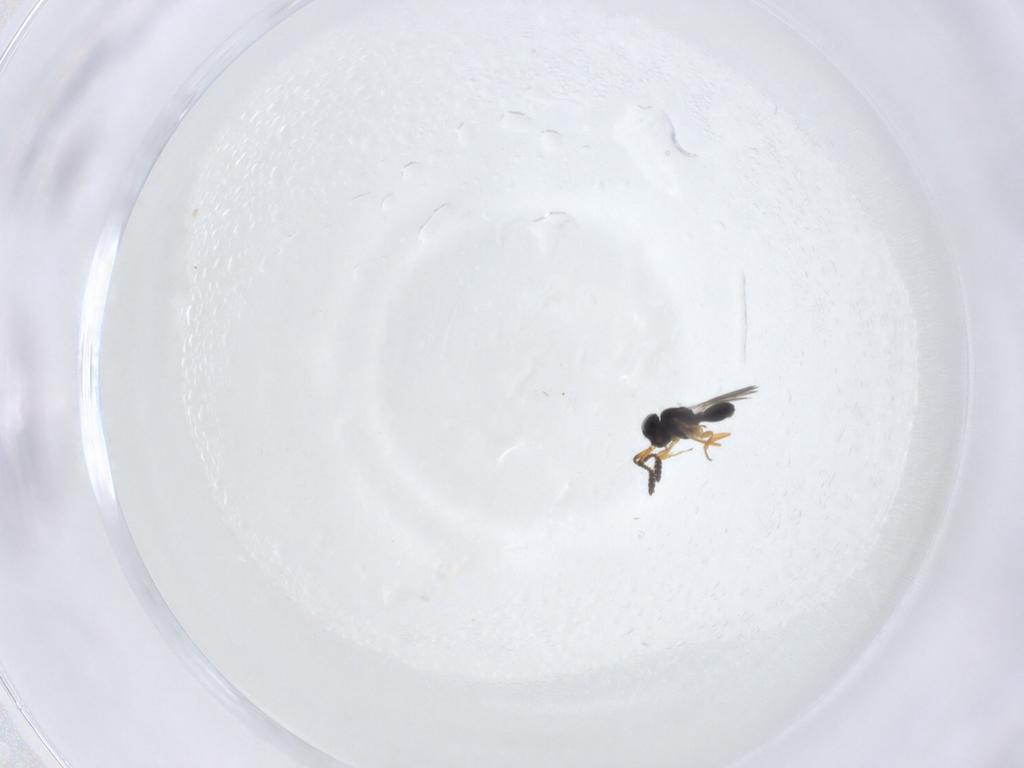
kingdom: Animalia
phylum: Arthropoda
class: Insecta
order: Hymenoptera
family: Scelionidae
